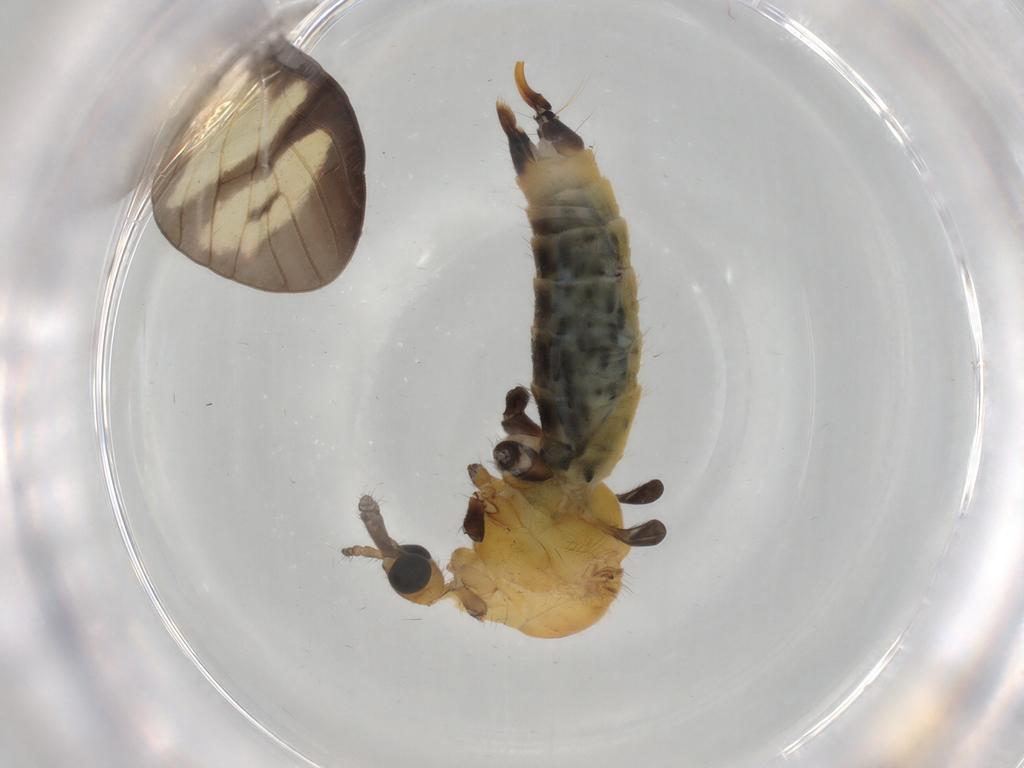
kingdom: Animalia
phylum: Arthropoda
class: Insecta
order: Diptera
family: Limoniidae
